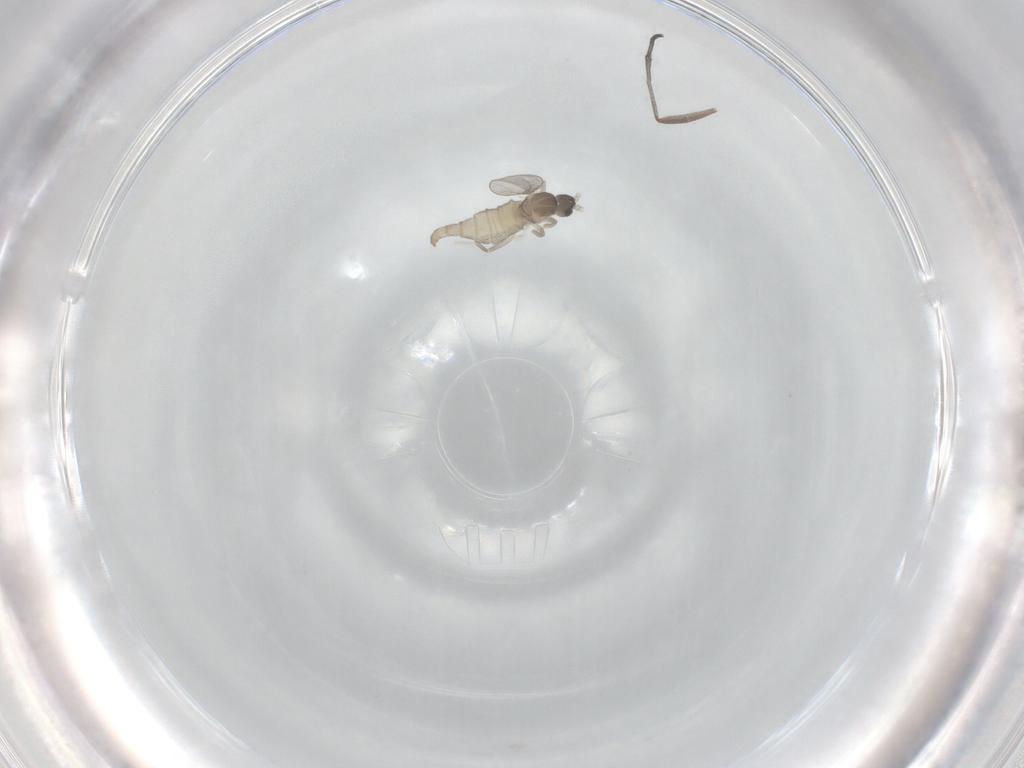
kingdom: Animalia
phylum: Arthropoda
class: Insecta
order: Diptera
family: Cecidomyiidae
